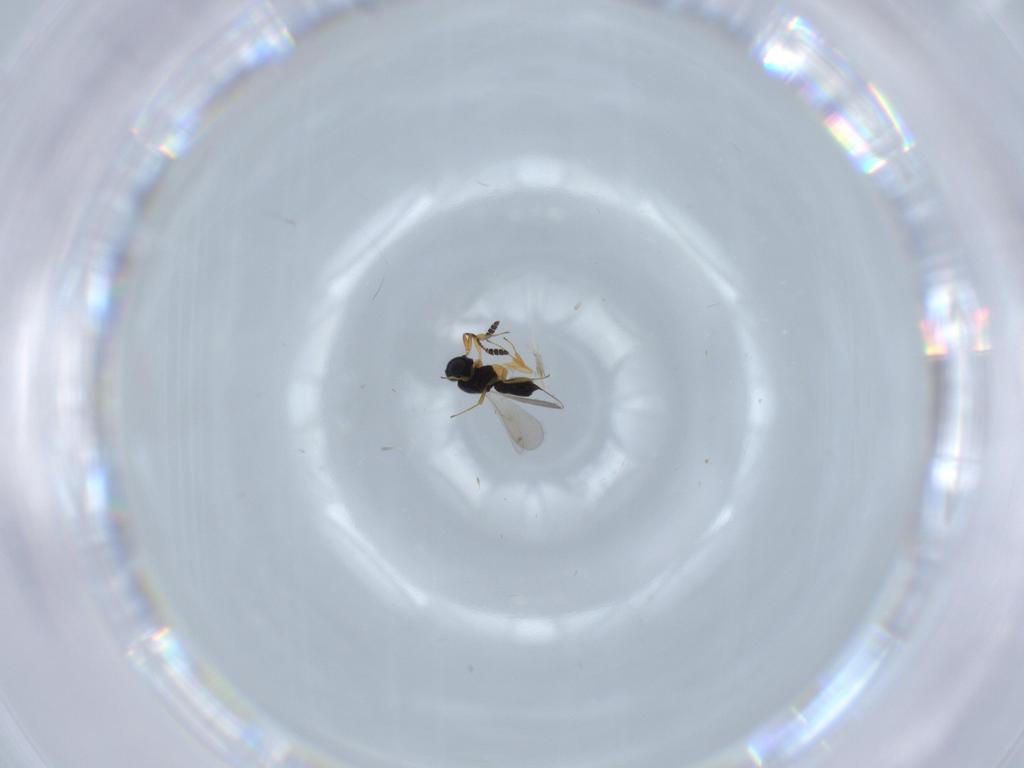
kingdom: Animalia
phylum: Arthropoda
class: Insecta
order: Hymenoptera
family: Scelionidae
